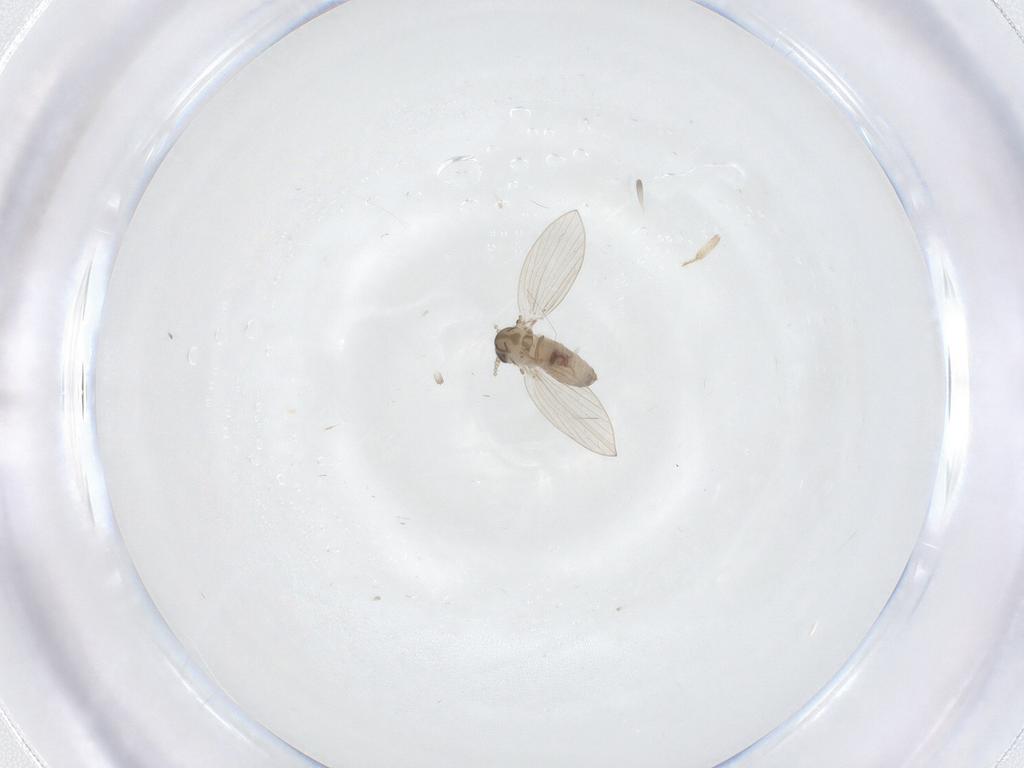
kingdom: Animalia
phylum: Arthropoda
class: Insecta
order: Diptera
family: Psychodidae
